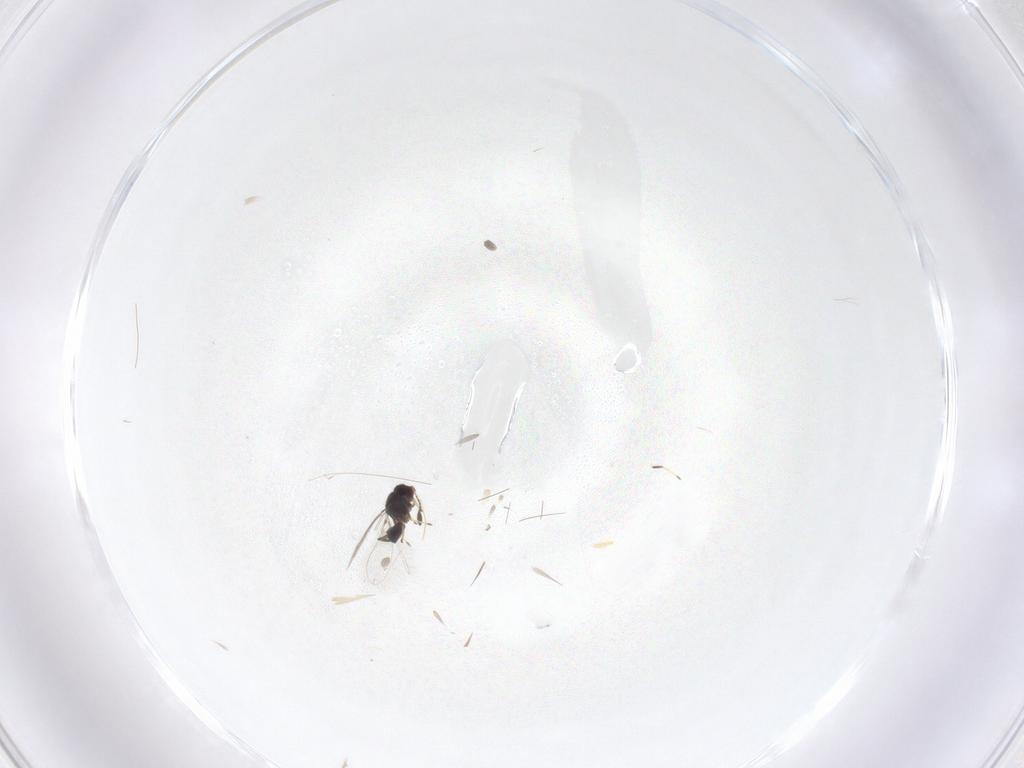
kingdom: Animalia
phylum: Arthropoda
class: Insecta
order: Hymenoptera
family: Mymaridae
